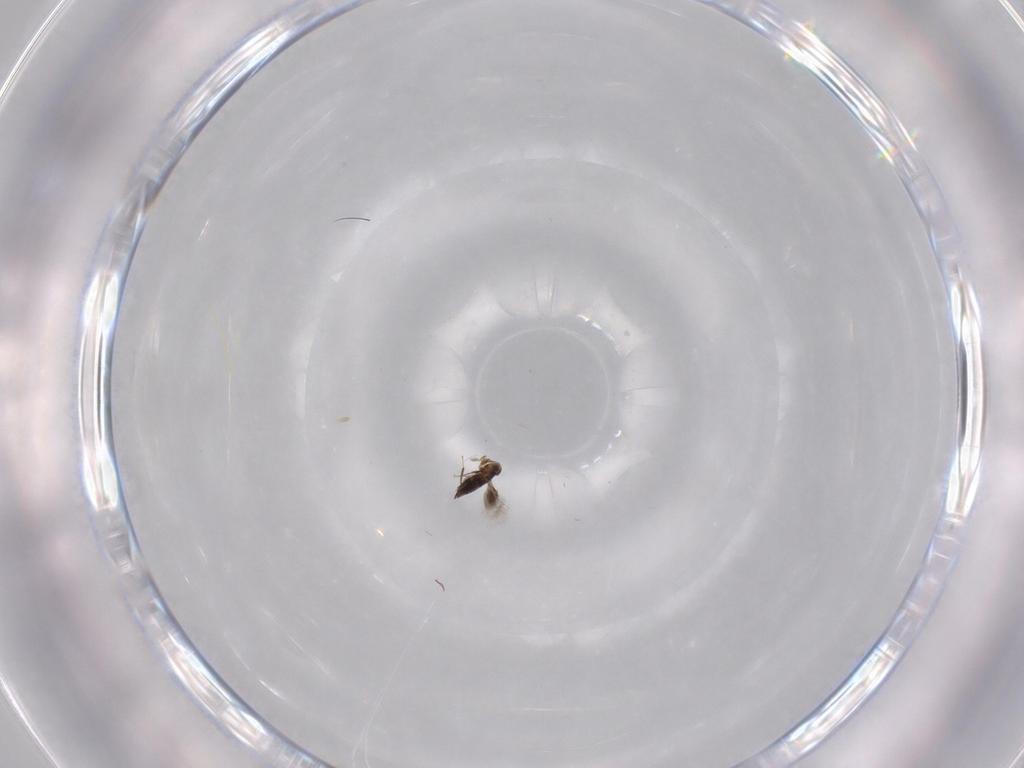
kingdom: Animalia
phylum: Arthropoda
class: Insecta
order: Hymenoptera
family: Signiphoridae
